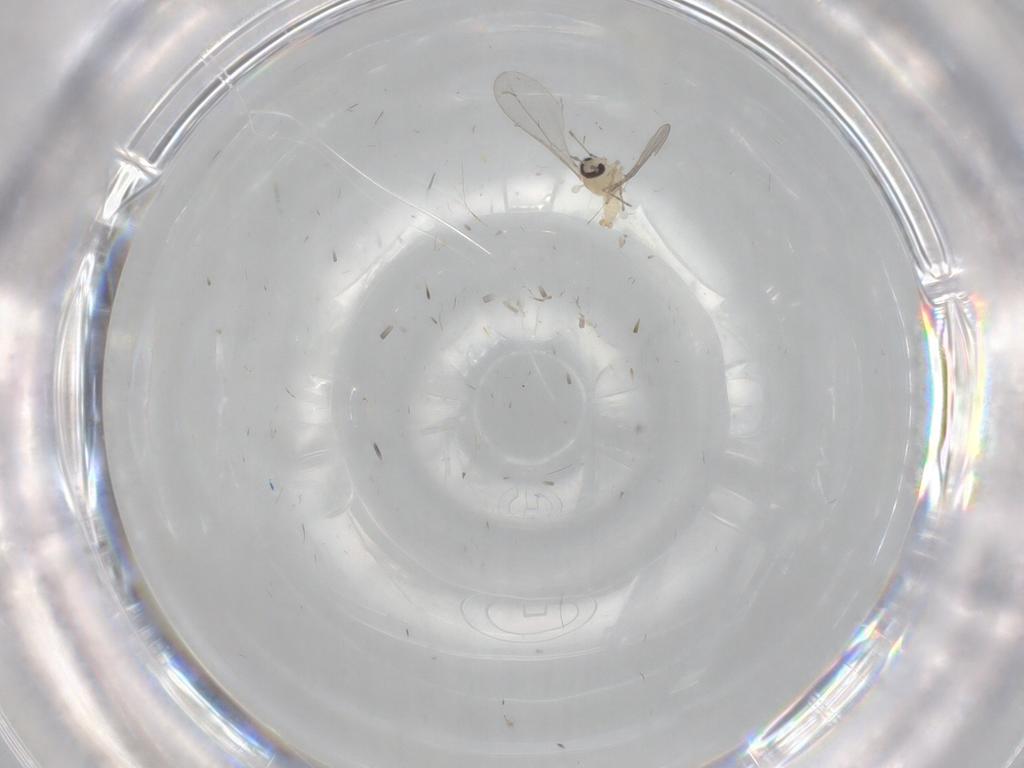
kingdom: Animalia
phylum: Arthropoda
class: Insecta
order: Diptera
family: Cecidomyiidae
